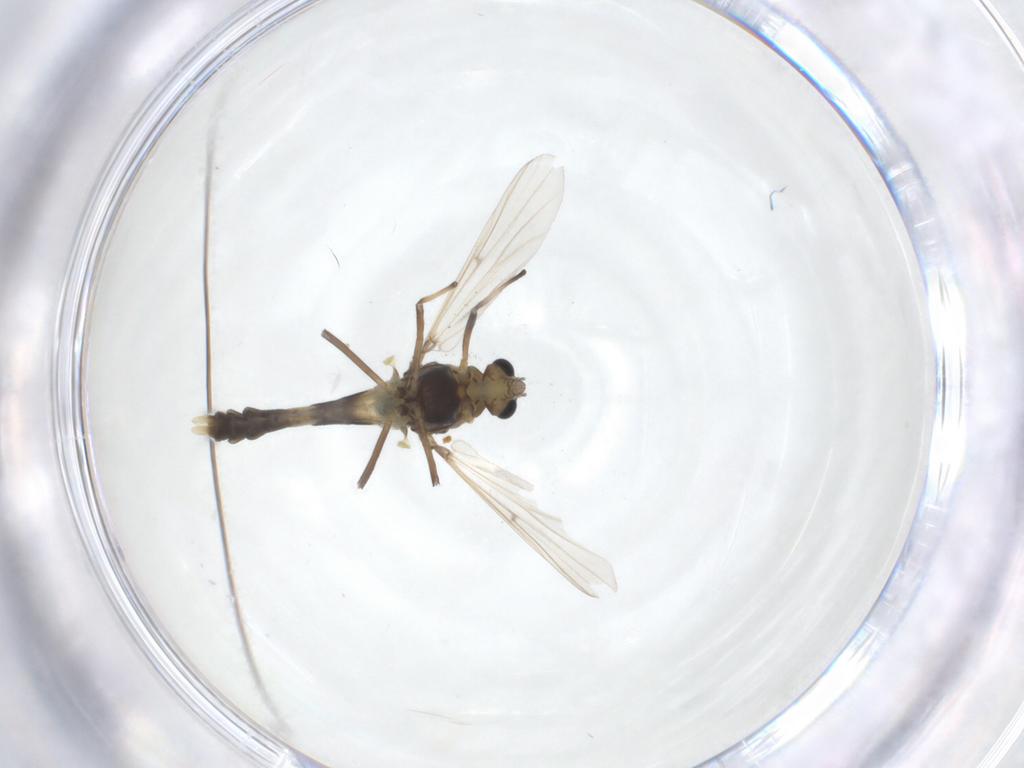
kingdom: Animalia
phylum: Arthropoda
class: Insecta
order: Diptera
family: Chironomidae
